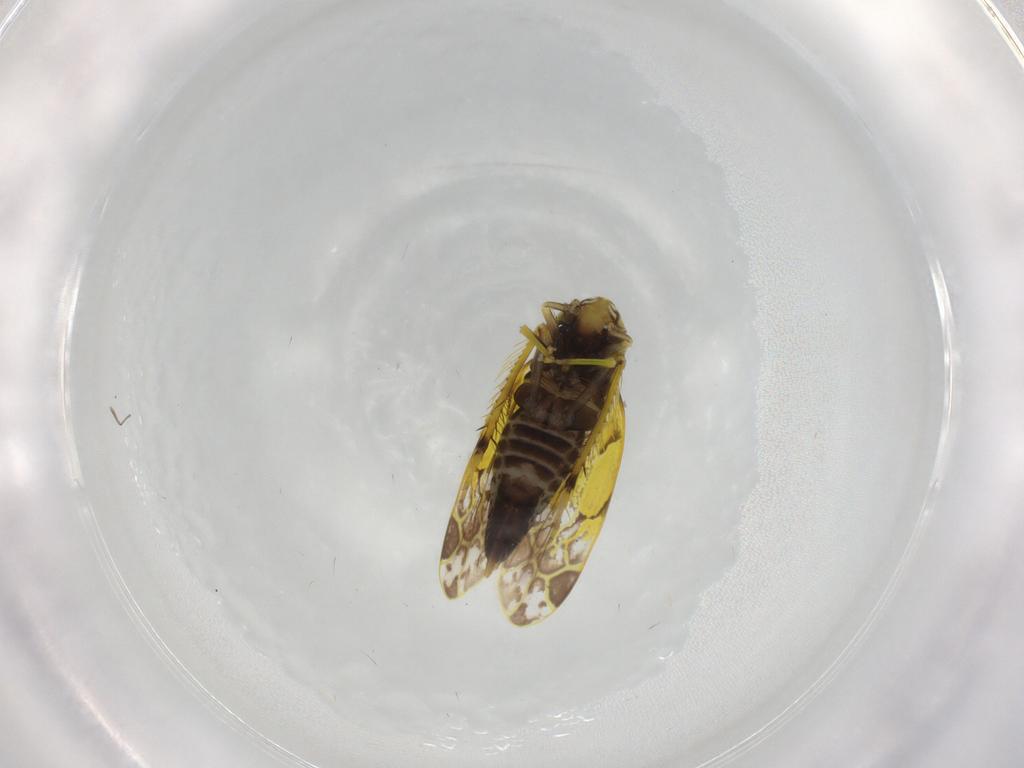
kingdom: Animalia
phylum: Arthropoda
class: Insecta
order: Hemiptera
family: Cicadellidae
